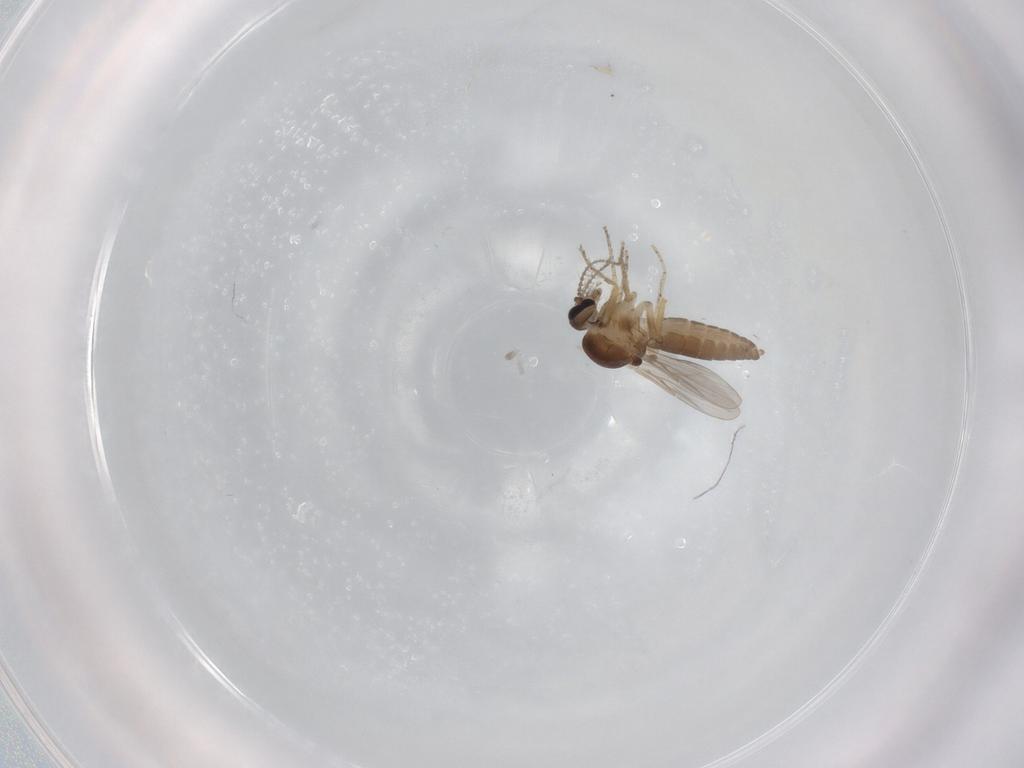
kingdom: Animalia
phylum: Arthropoda
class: Insecta
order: Diptera
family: Ceratopogonidae
